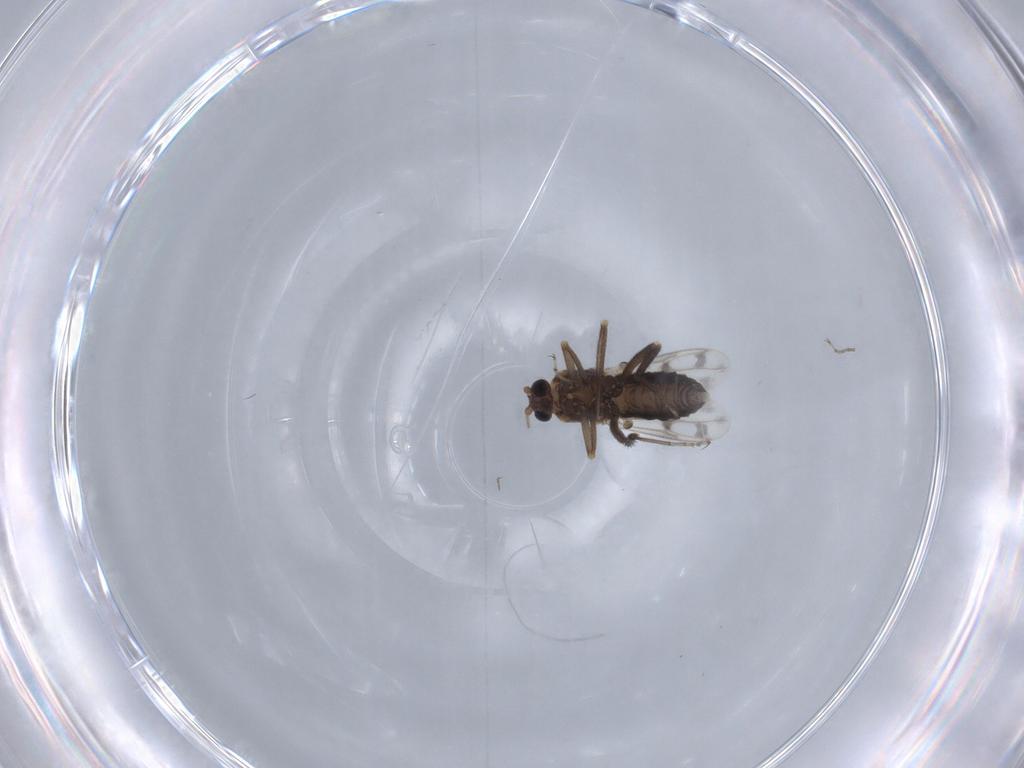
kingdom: Animalia
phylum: Arthropoda
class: Insecta
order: Diptera
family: Ceratopogonidae
